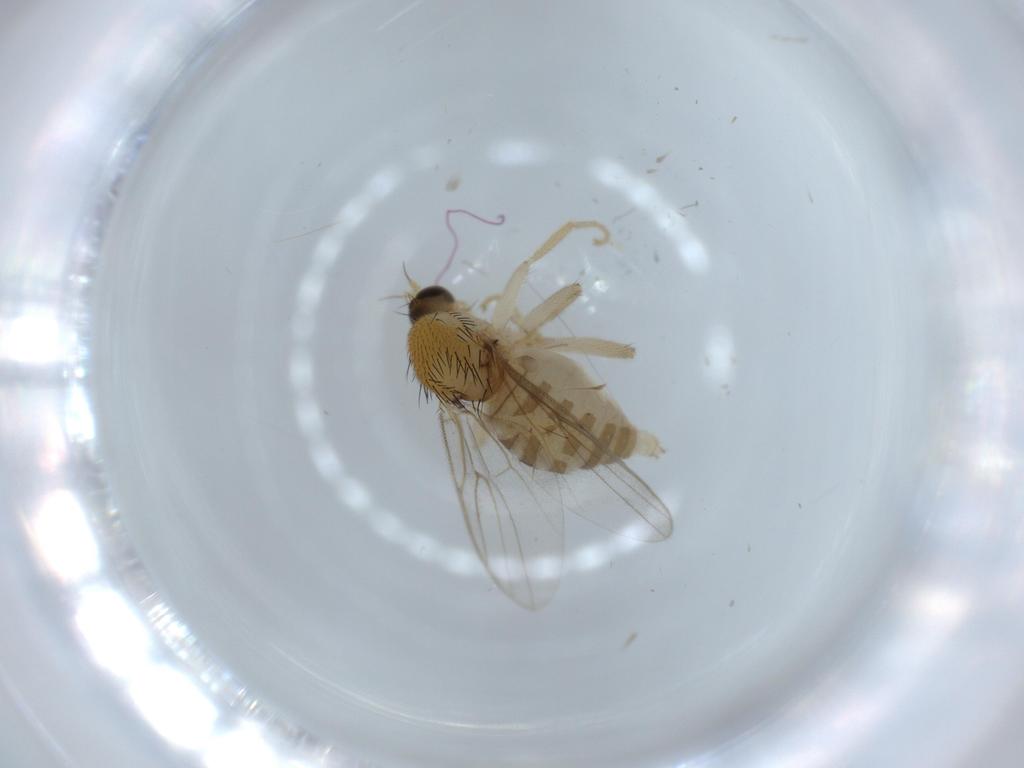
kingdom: Animalia
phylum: Arthropoda
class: Insecta
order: Diptera
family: Hybotidae
